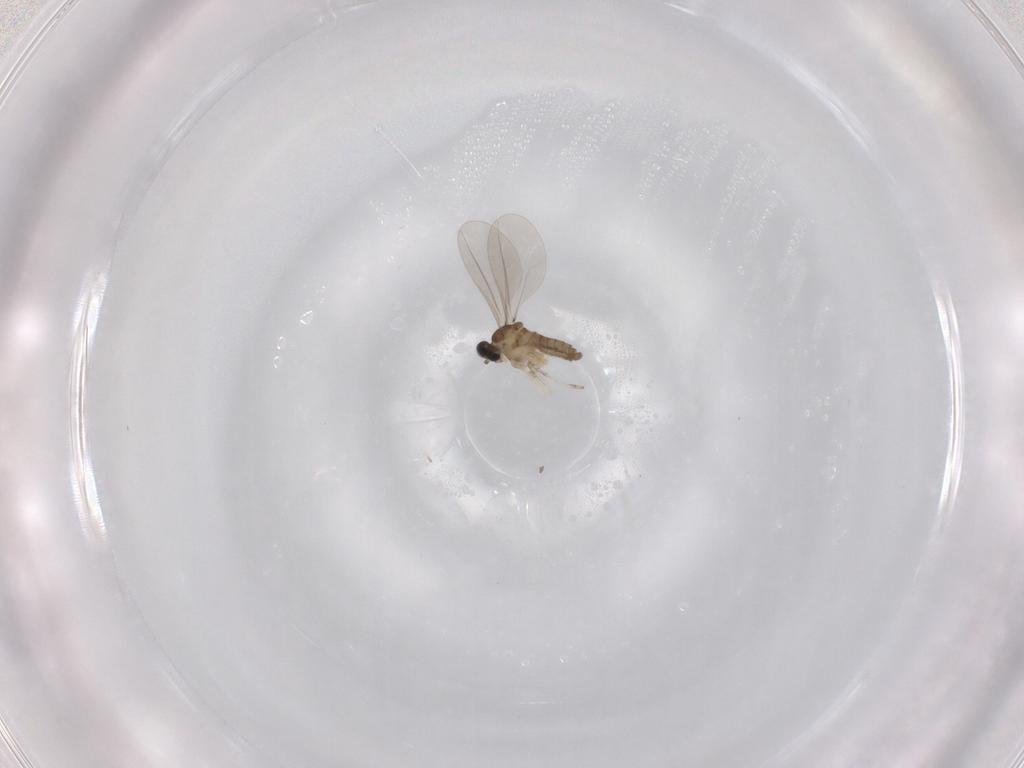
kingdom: Animalia
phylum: Arthropoda
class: Insecta
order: Diptera
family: Cecidomyiidae
